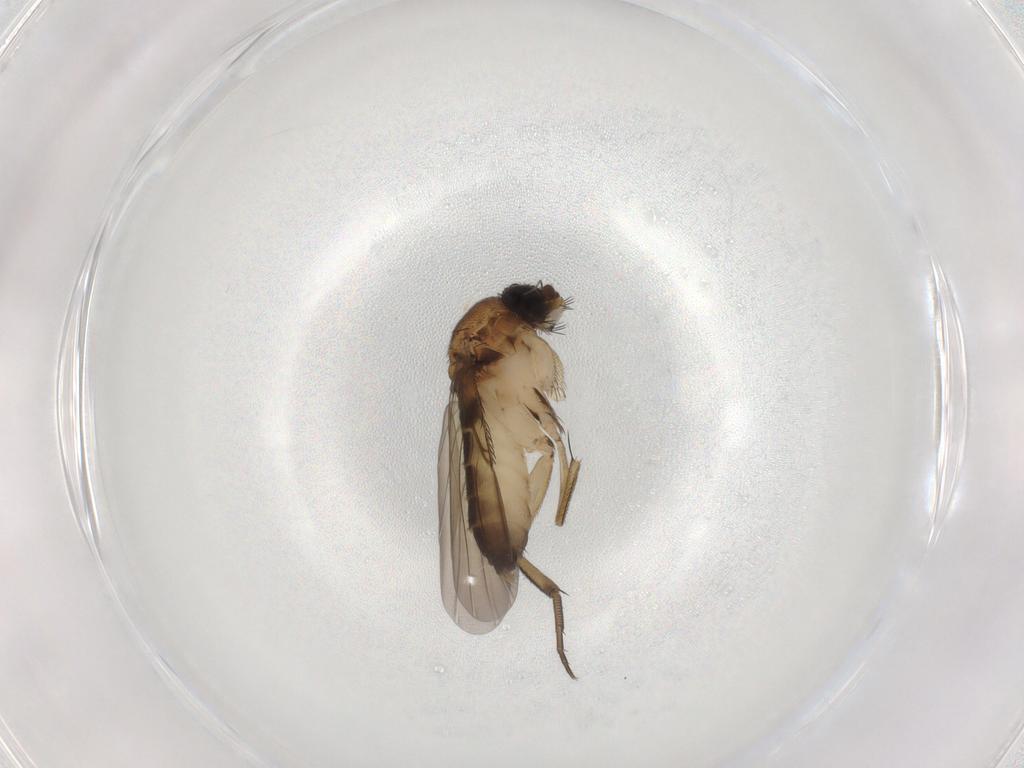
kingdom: Animalia
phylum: Arthropoda
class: Insecta
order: Diptera
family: Phoridae
